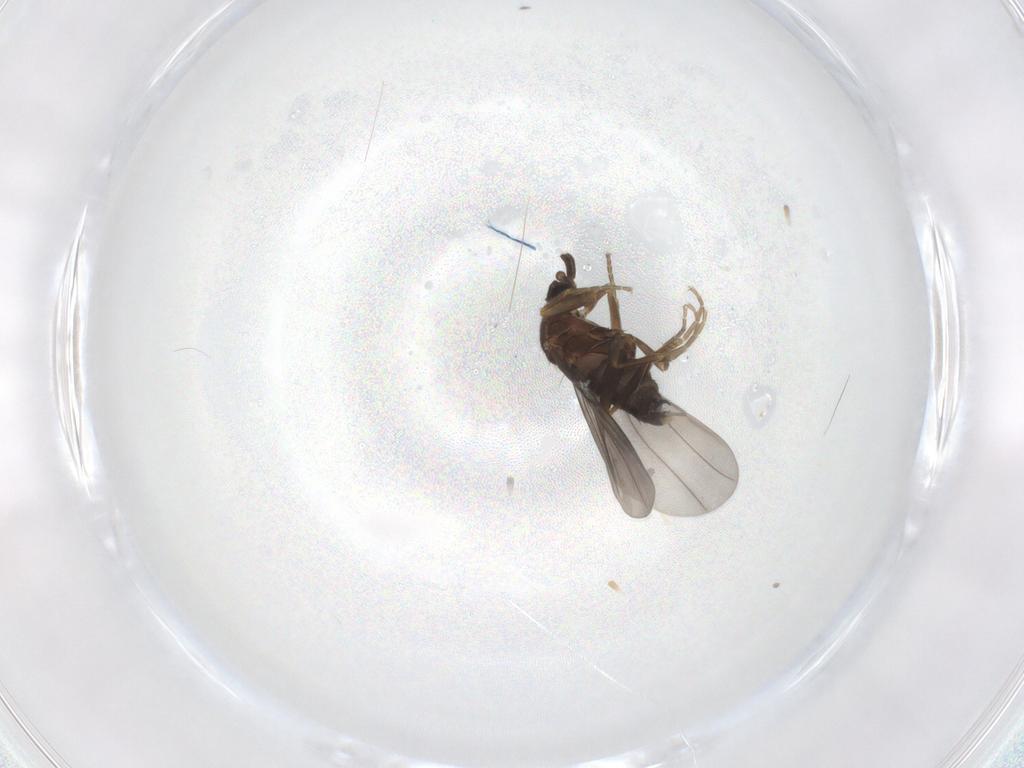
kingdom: Animalia
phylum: Arthropoda
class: Insecta
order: Diptera
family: Phoridae
